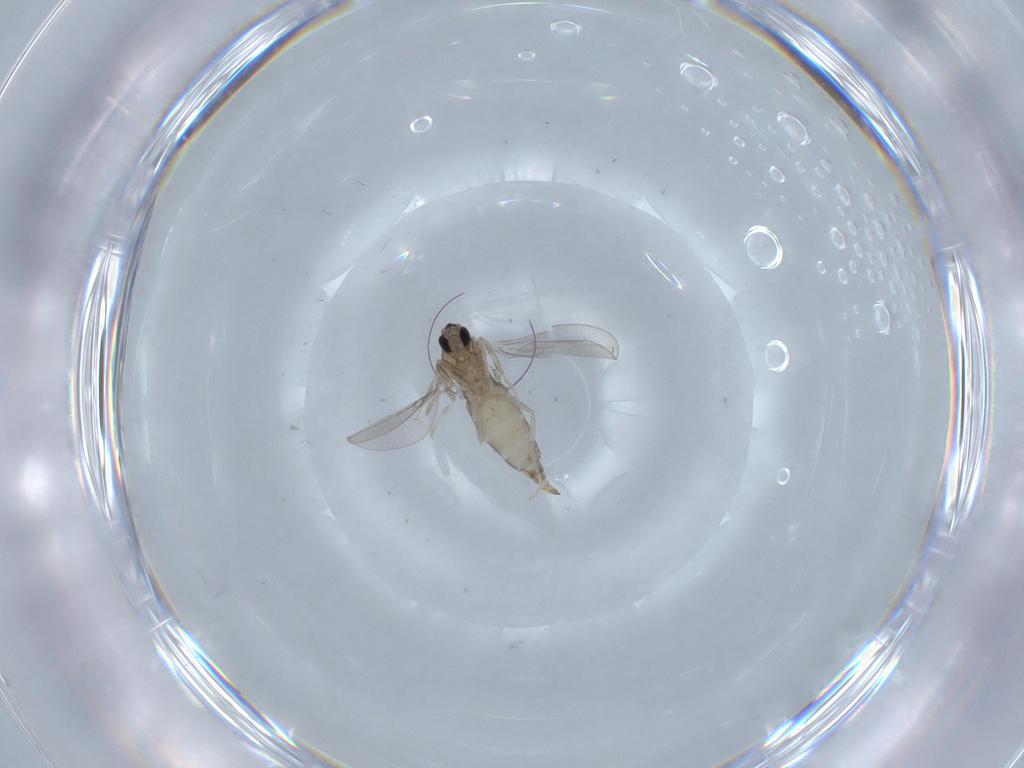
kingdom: Animalia
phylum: Arthropoda
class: Insecta
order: Diptera
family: Cecidomyiidae
